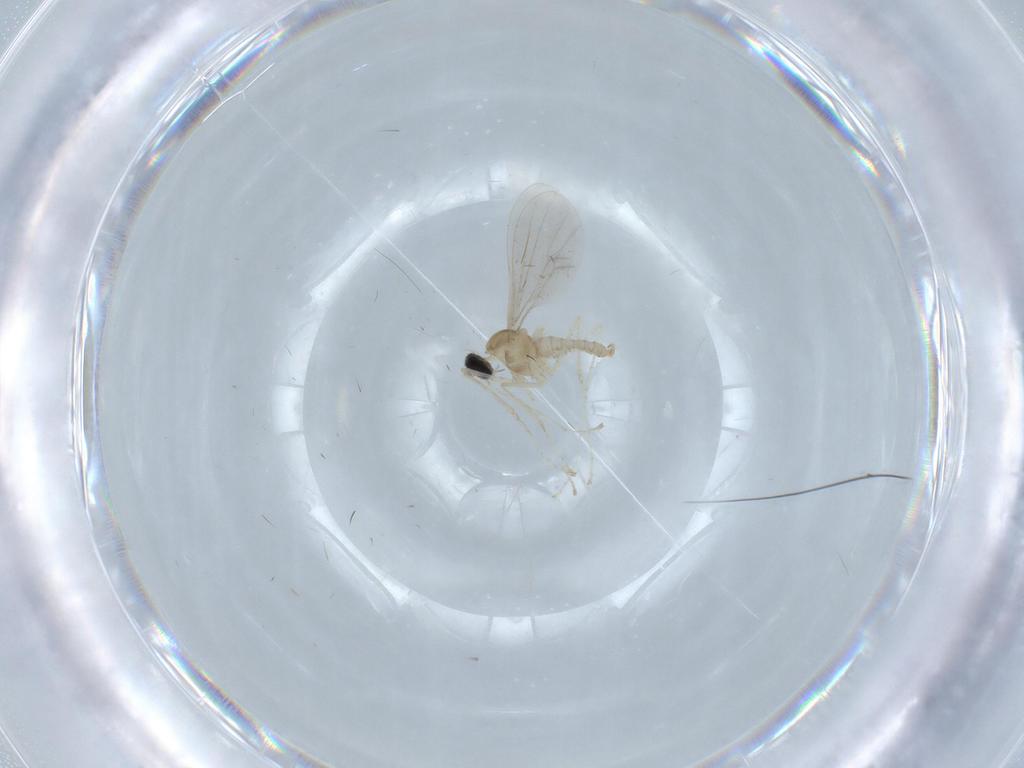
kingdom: Animalia
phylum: Arthropoda
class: Insecta
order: Diptera
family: Cecidomyiidae
